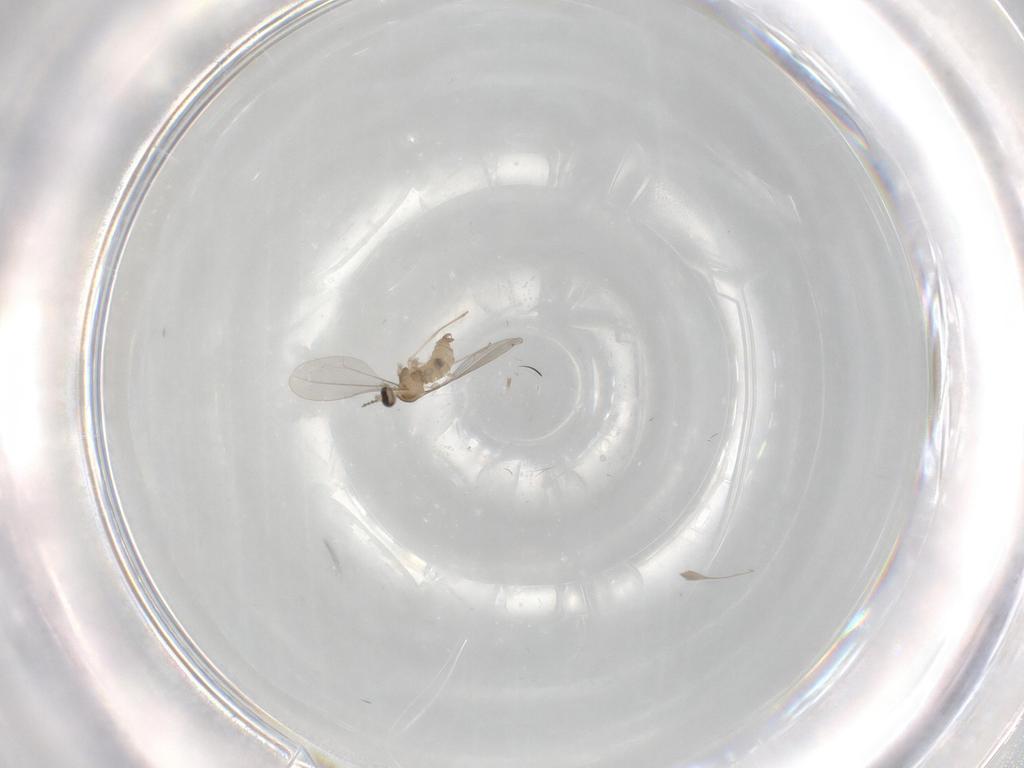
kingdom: Animalia
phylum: Arthropoda
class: Insecta
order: Diptera
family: Cecidomyiidae
